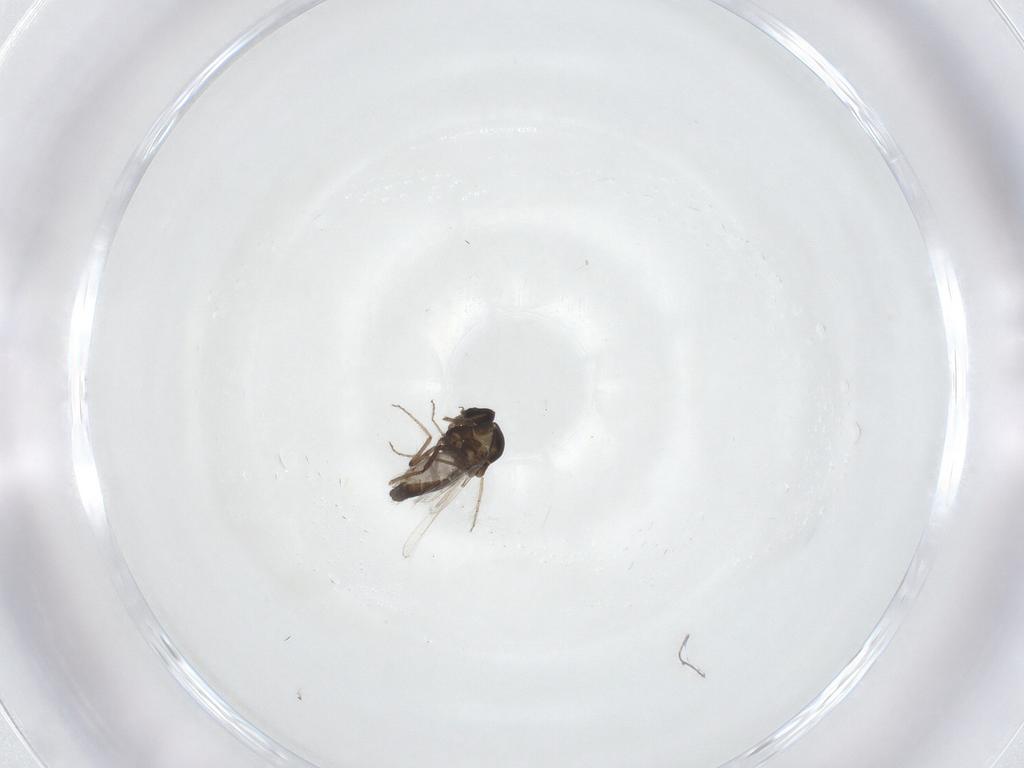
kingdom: Animalia
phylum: Arthropoda
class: Insecta
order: Diptera
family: Ceratopogonidae
